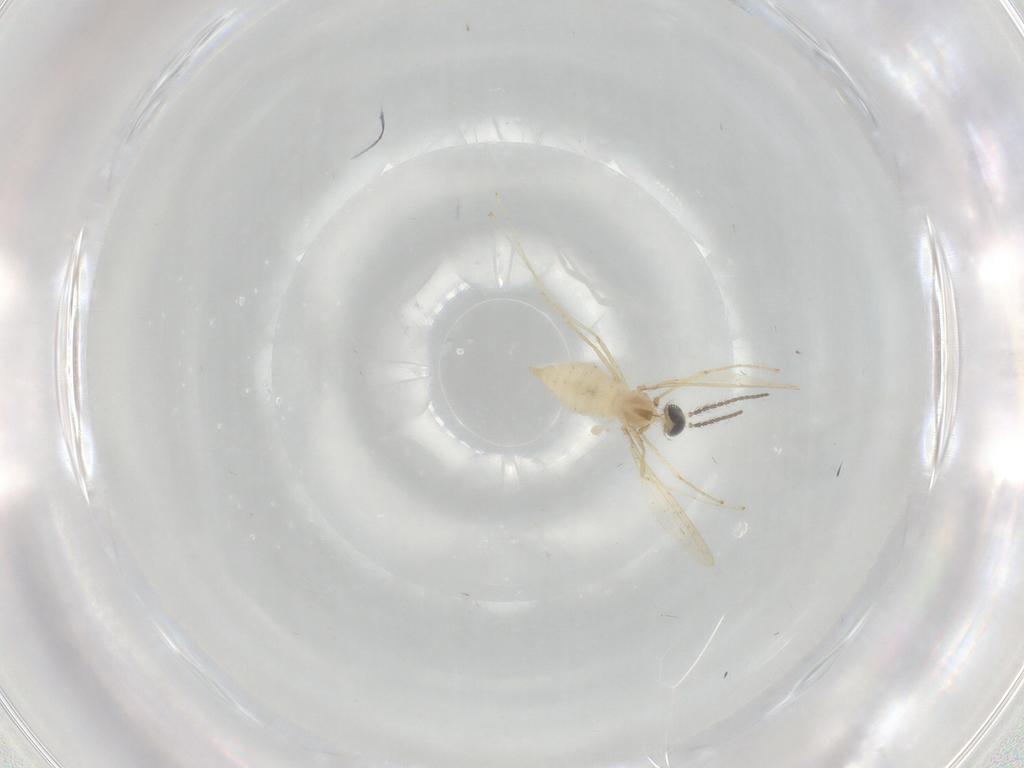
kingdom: Animalia
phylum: Arthropoda
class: Insecta
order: Diptera
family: Cecidomyiidae
